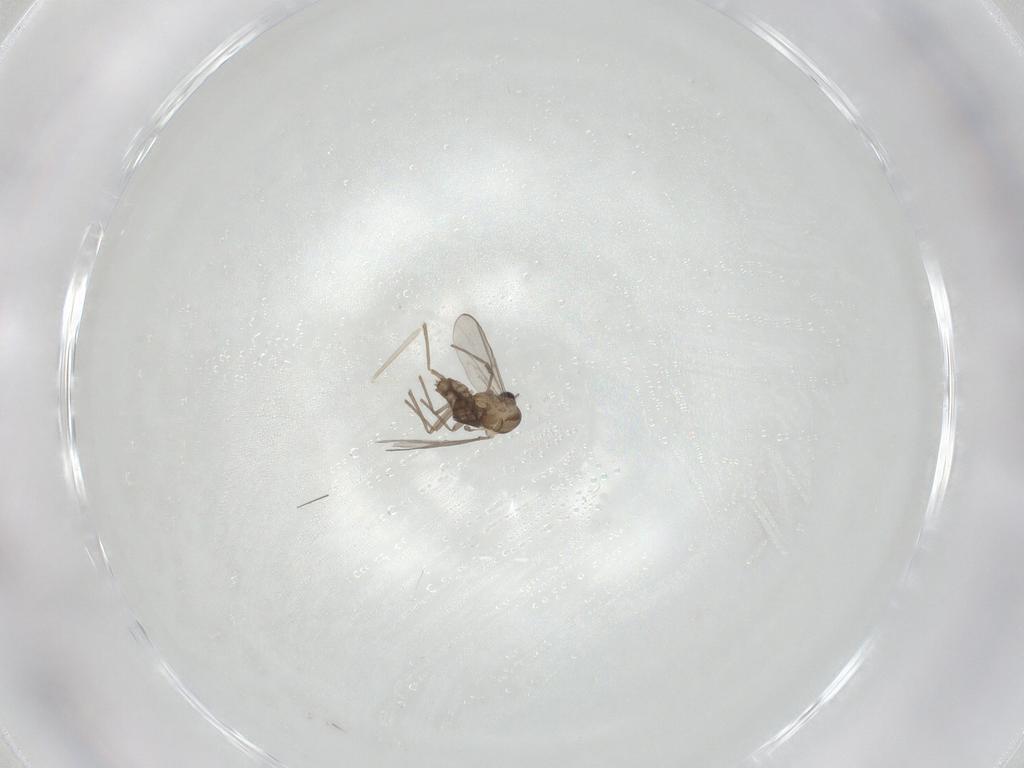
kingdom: Animalia
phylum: Arthropoda
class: Insecta
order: Diptera
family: Chironomidae
